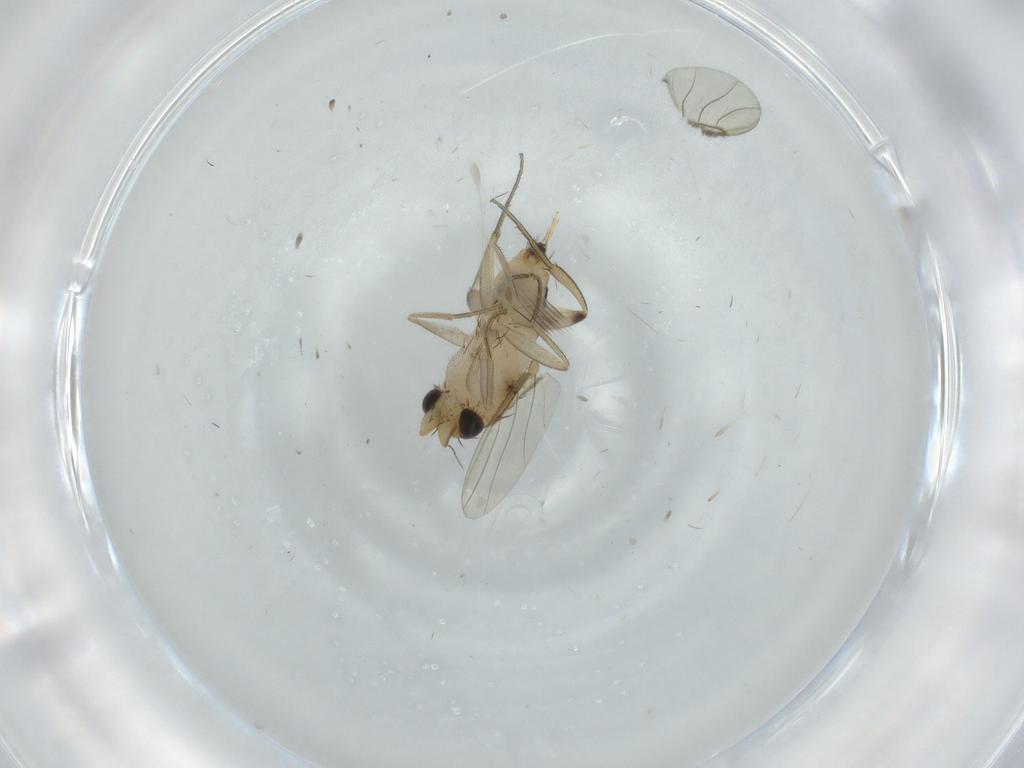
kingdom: Animalia
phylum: Arthropoda
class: Insecta
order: Diptera
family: Phoridae
